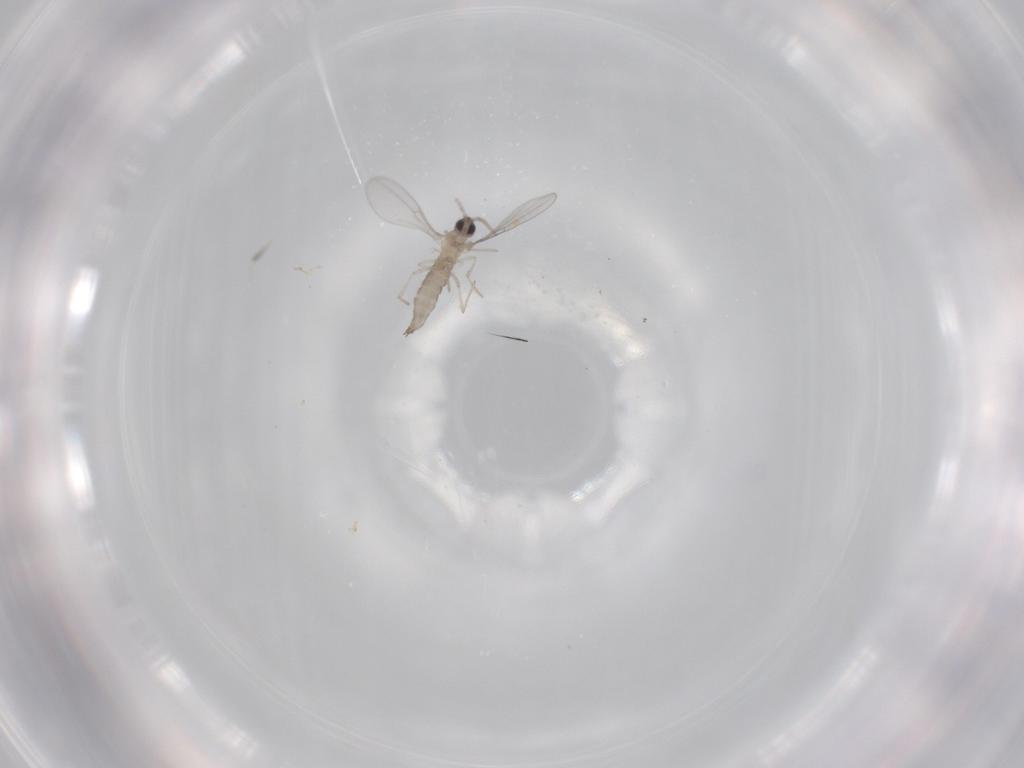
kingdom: Animalia
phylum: Arthropoda
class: Insecta
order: Diptera
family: Cecidomyiidae
